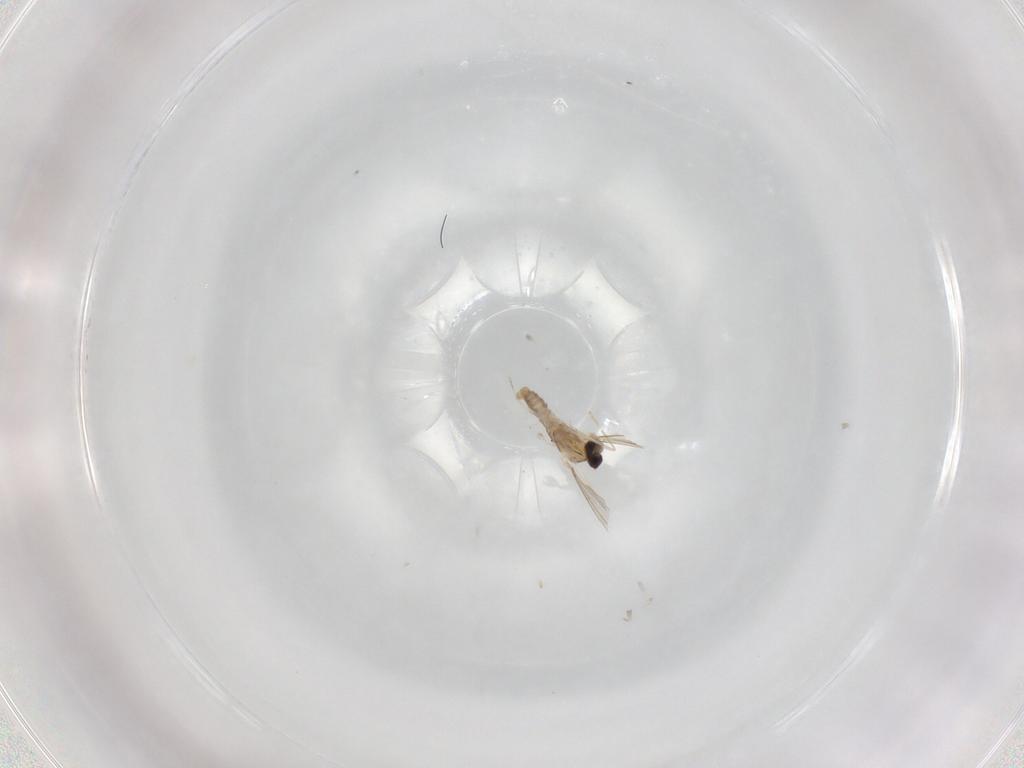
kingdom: Animalia
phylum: Arthropoda
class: Insecta
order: Diptera
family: Cecidomyiidae
